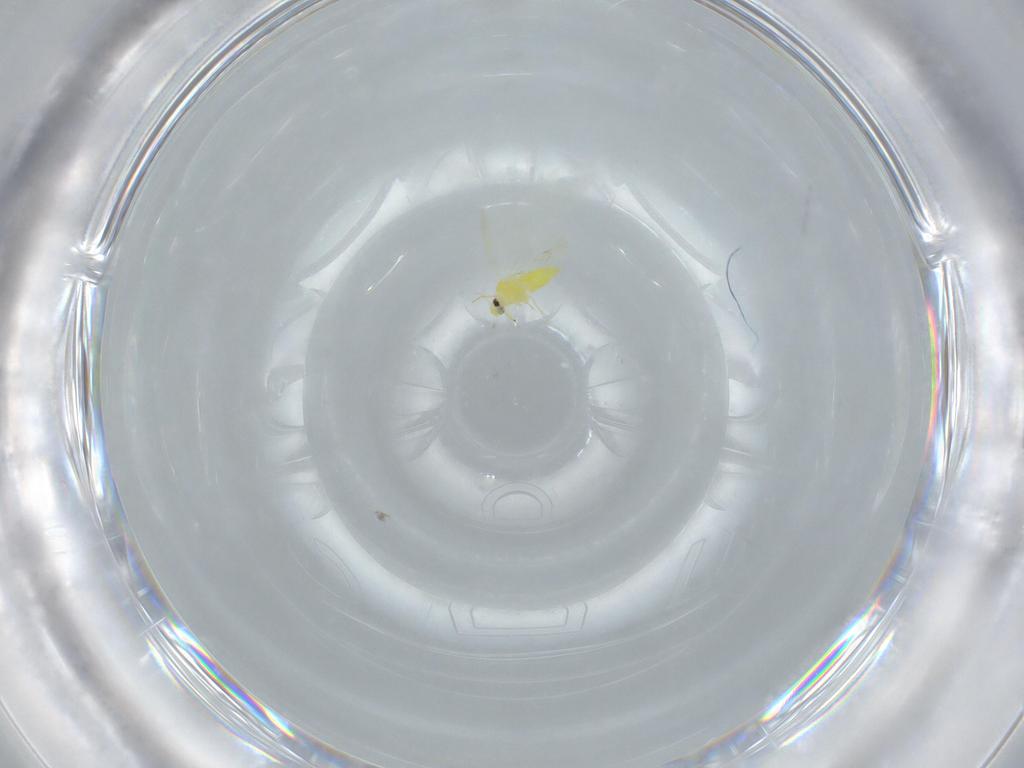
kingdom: Animalia
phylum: Arthropoda
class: Insecta
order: Hemiptera
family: Aleyrodidae
